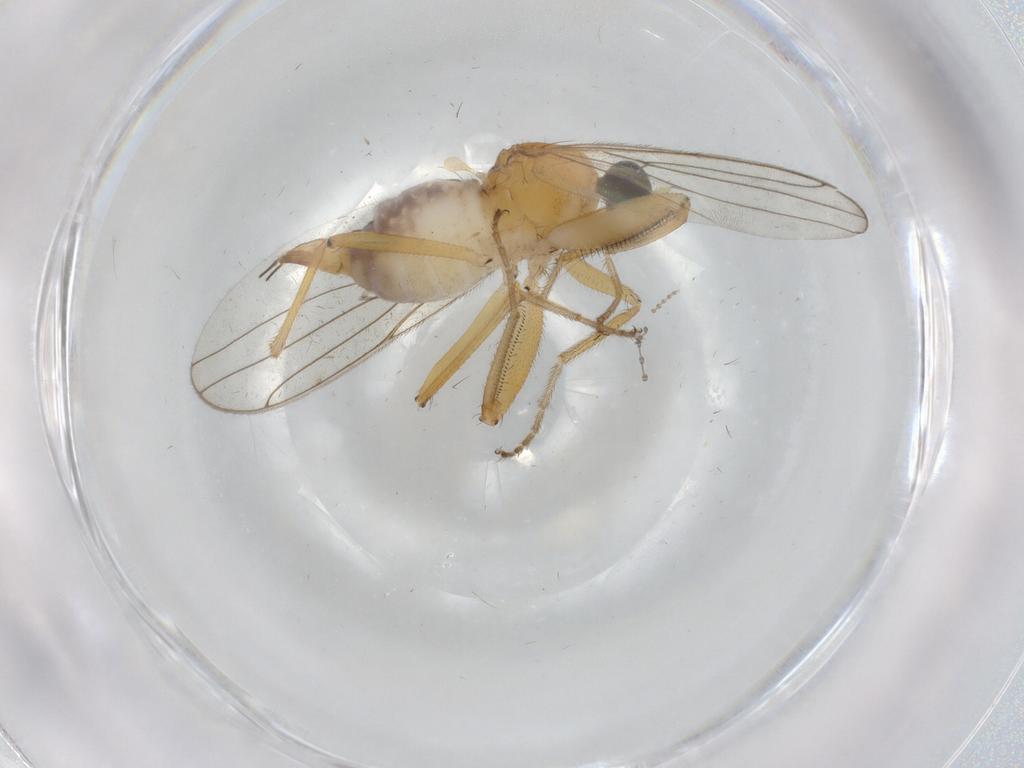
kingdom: Animalia
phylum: Arthropoda
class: Insecta
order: Diptera
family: Hybotidae
